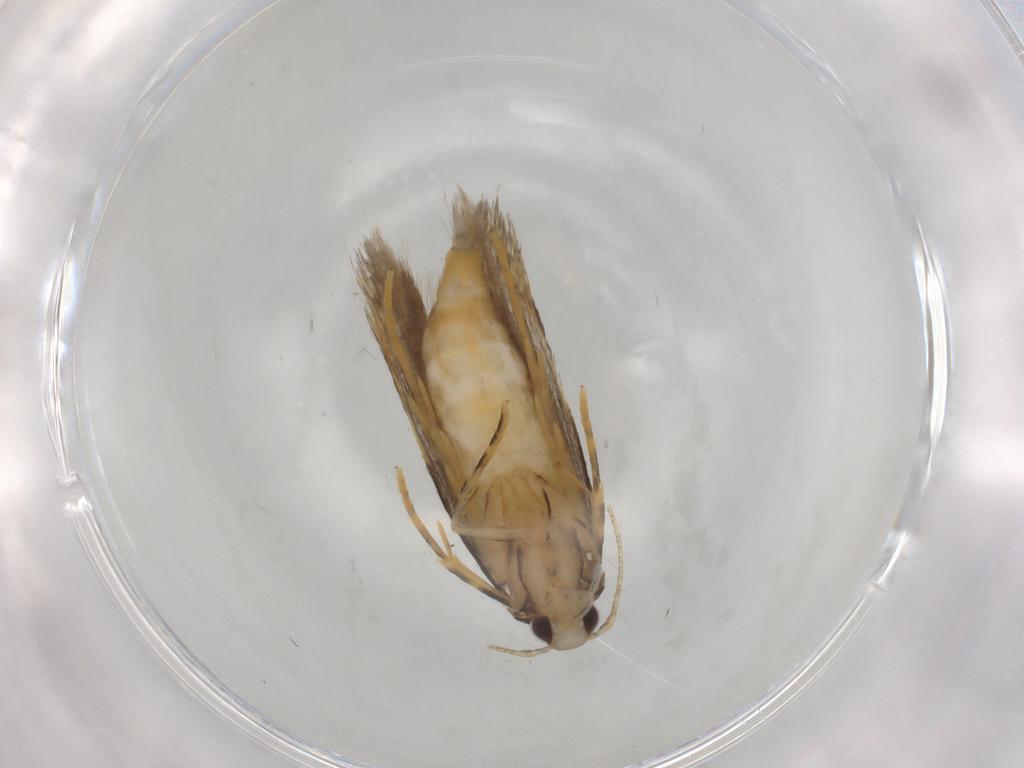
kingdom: Animalia
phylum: Arthropoda
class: Insecta
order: Lepidoptera
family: Autostichidae
